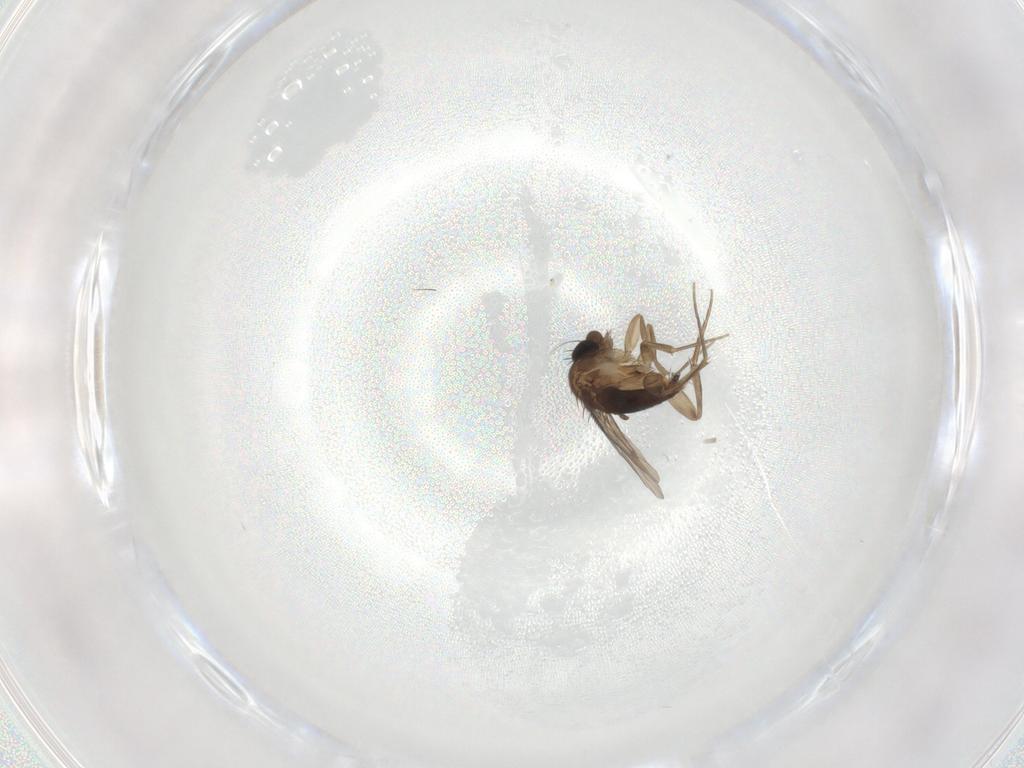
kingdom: Animalia
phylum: Arthropoda
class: Insecta
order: Diptera
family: Phoridae
